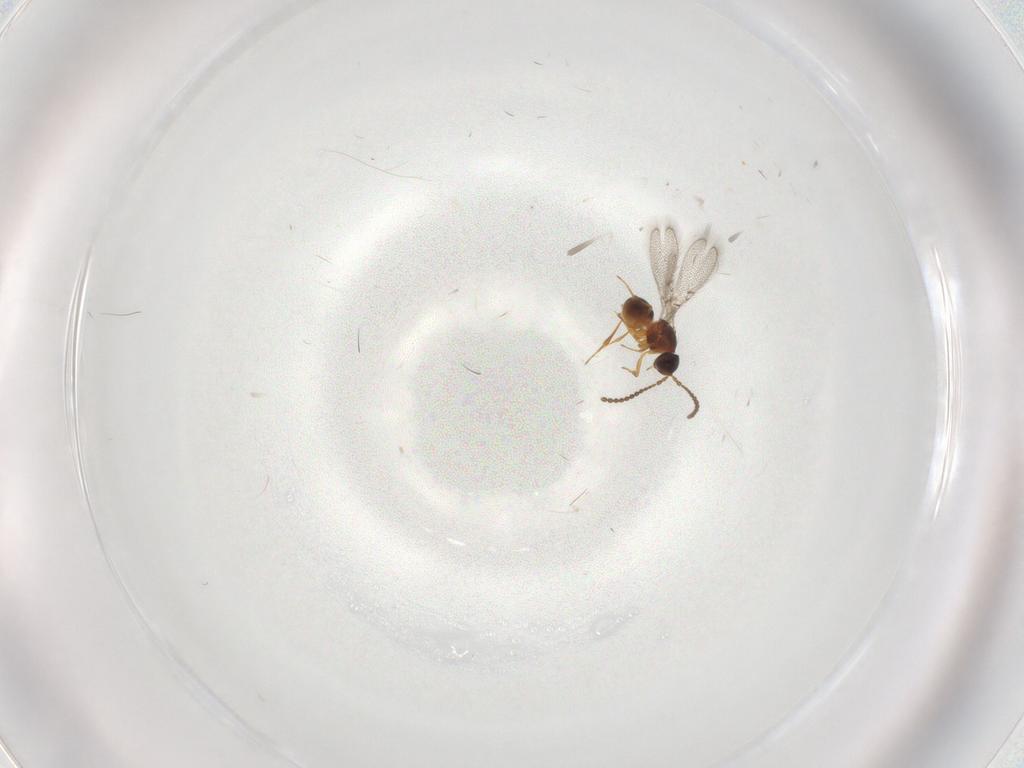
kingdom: Animalia
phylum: Arthropoda
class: Insecta
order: Hymenoptera
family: Figitidae
